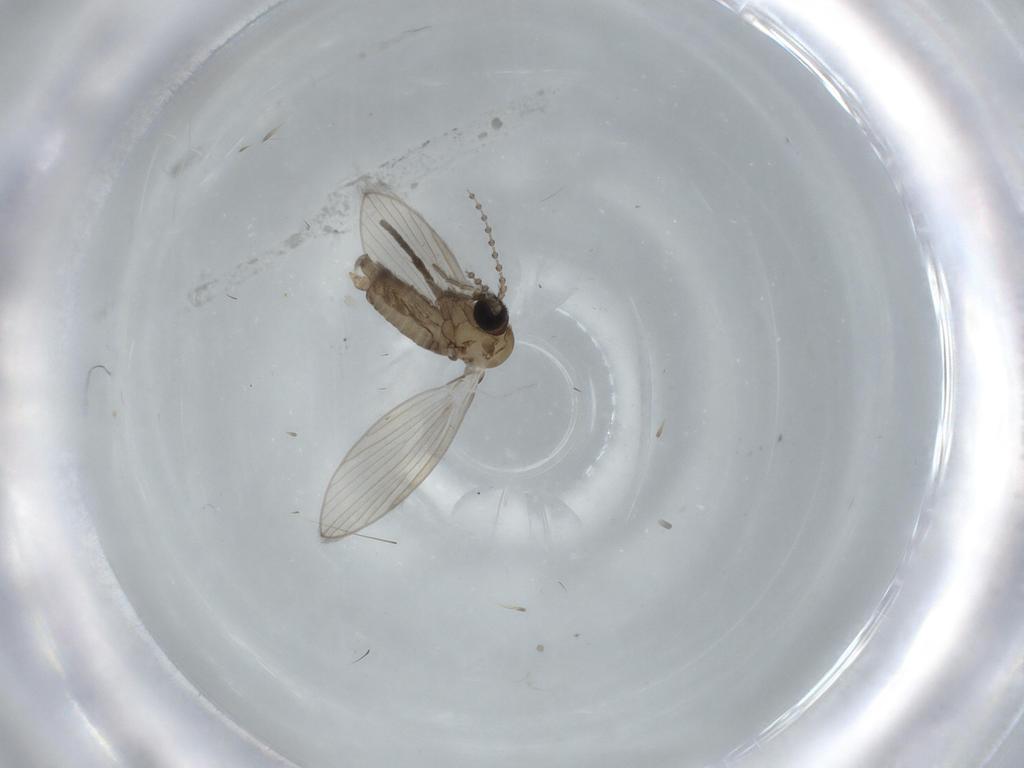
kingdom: Animalia
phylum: Arthropoda
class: Insecta
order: Diptera
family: Psychodidae
